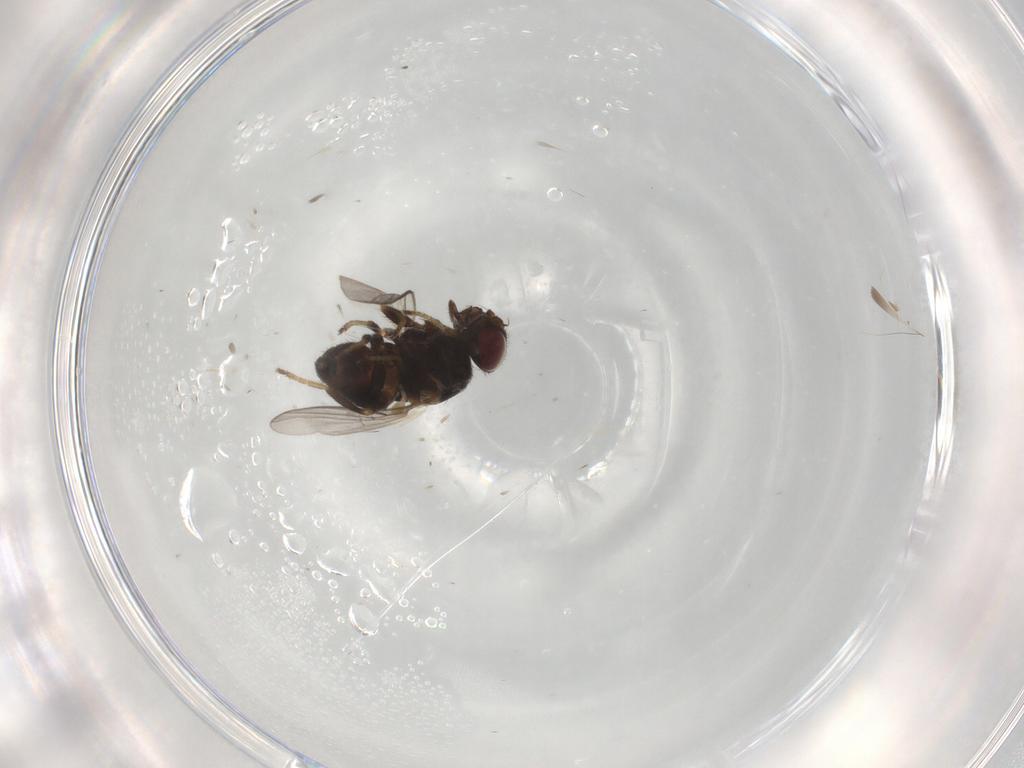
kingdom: Animalia
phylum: Arthropoda
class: Insecta
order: Diptera
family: Chloropidae
